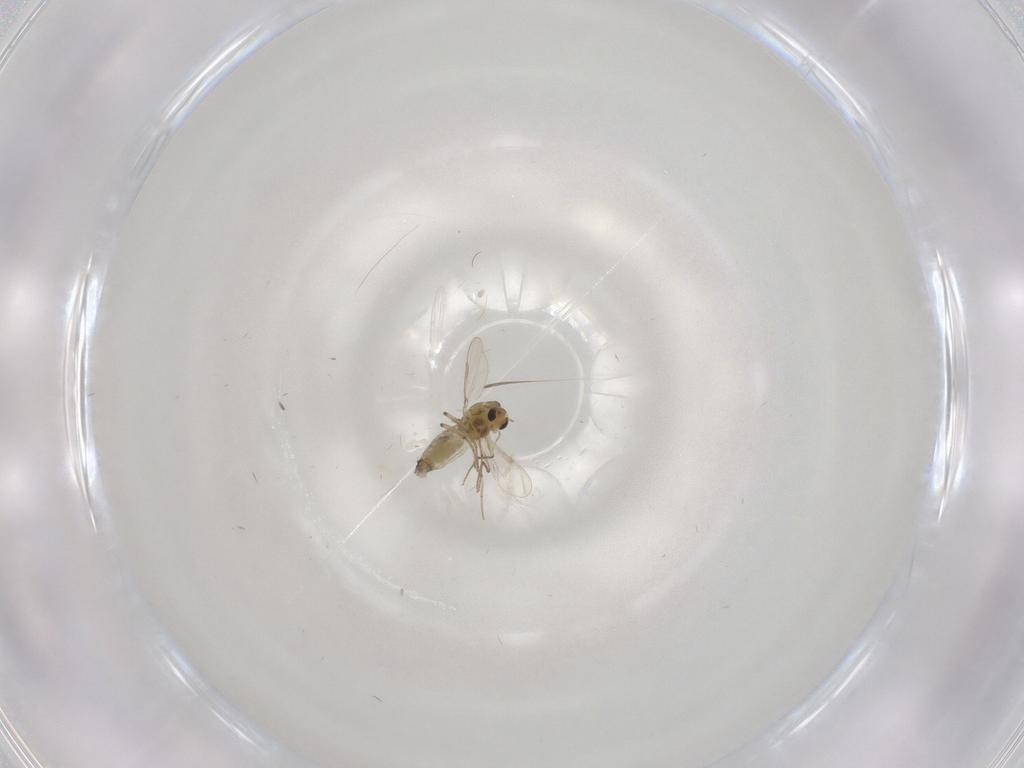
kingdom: Animalia
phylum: Arthropoda
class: Insecta
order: Diptera
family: Chironomidae
